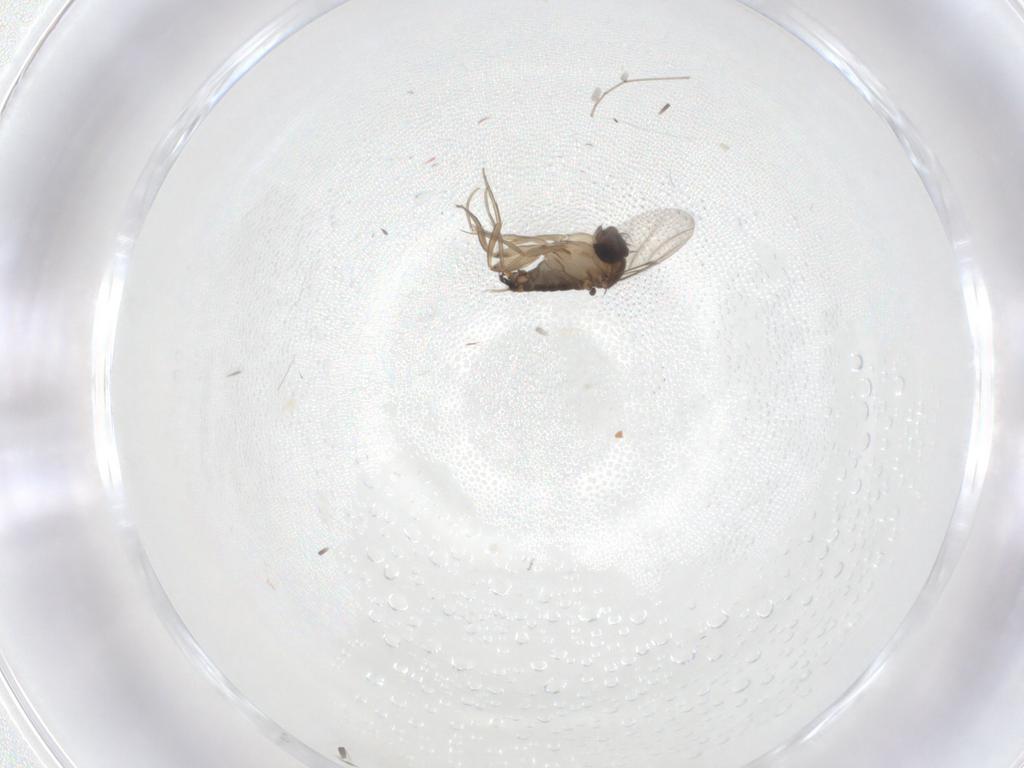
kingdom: Animalia
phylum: Arthropoda
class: Insecta
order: Diptera
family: Phoridae
